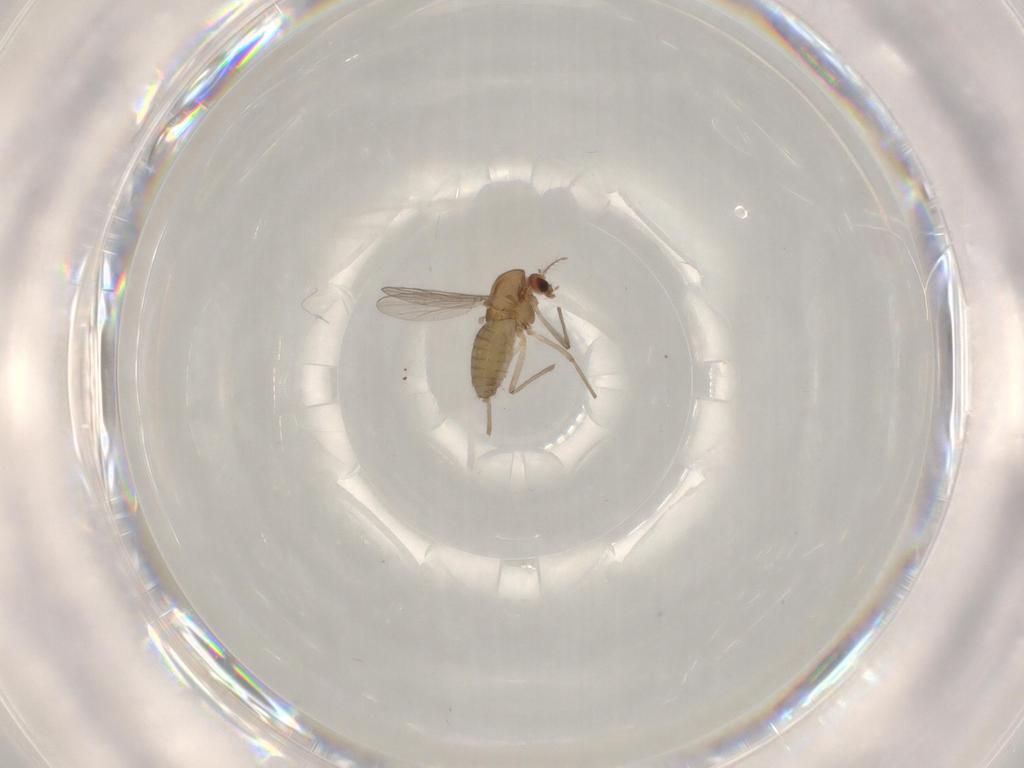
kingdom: Animalia
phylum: Arthropoda
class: Insecta
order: Diptera
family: Chironomidae
